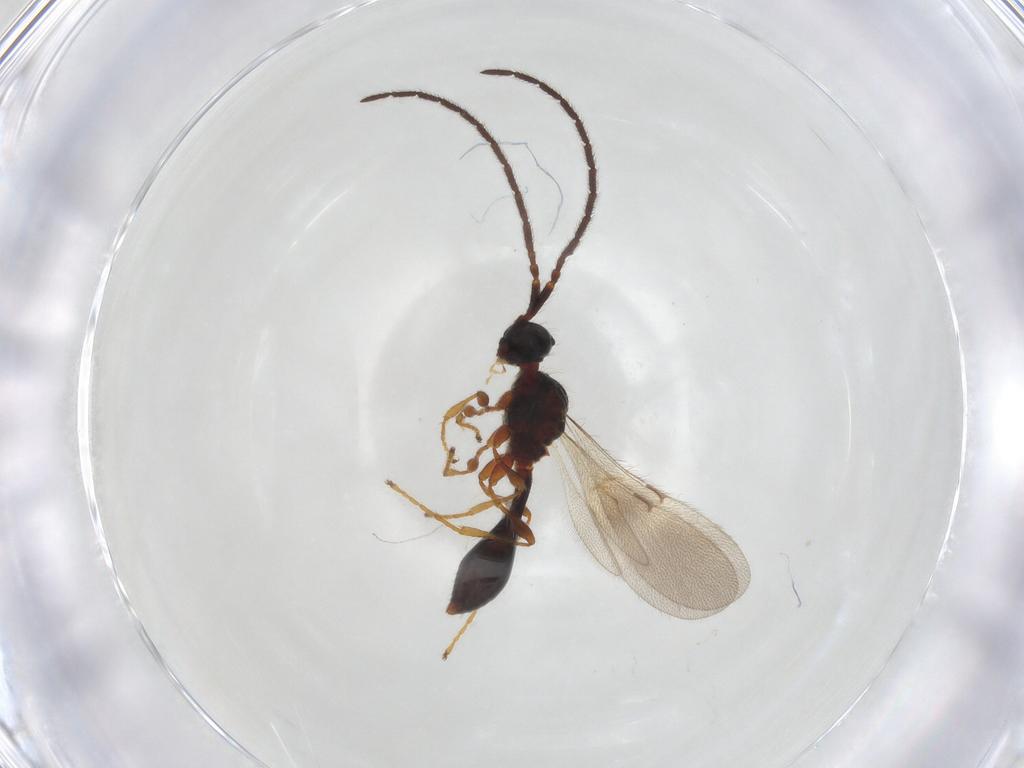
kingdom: Animalia
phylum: Arthropoda
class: Insecta
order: Hymenoptera
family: Diapriidae
